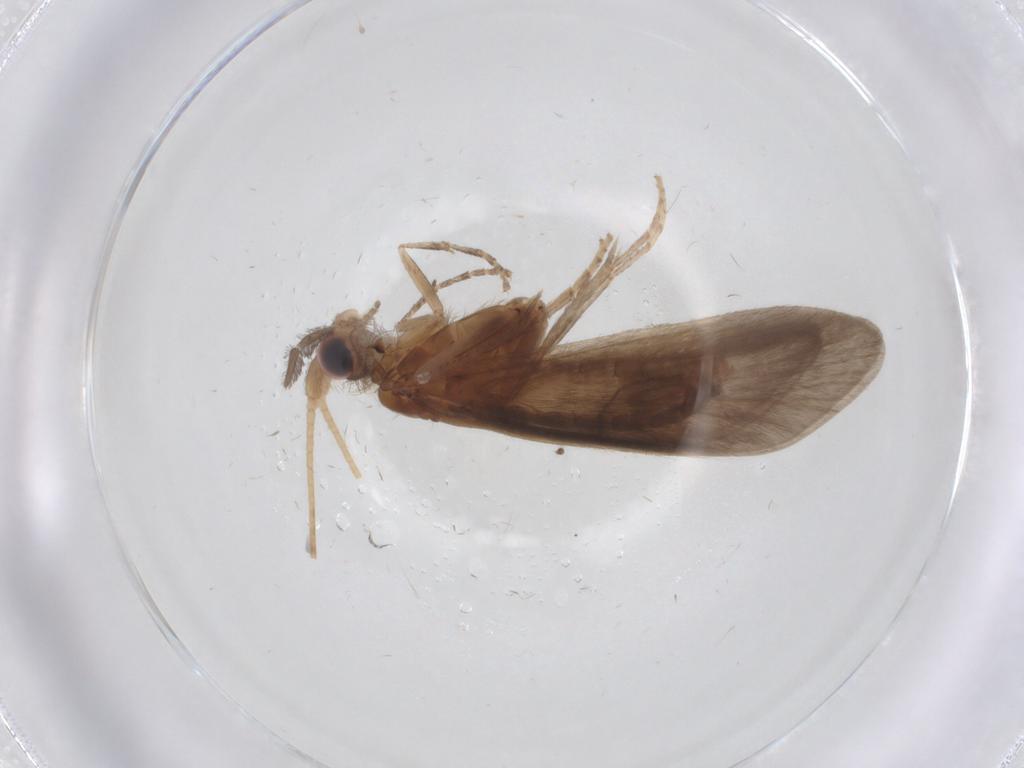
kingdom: Animalia
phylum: Arthropoda
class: Insecta
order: Trichoptera
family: Helicopsychidae
